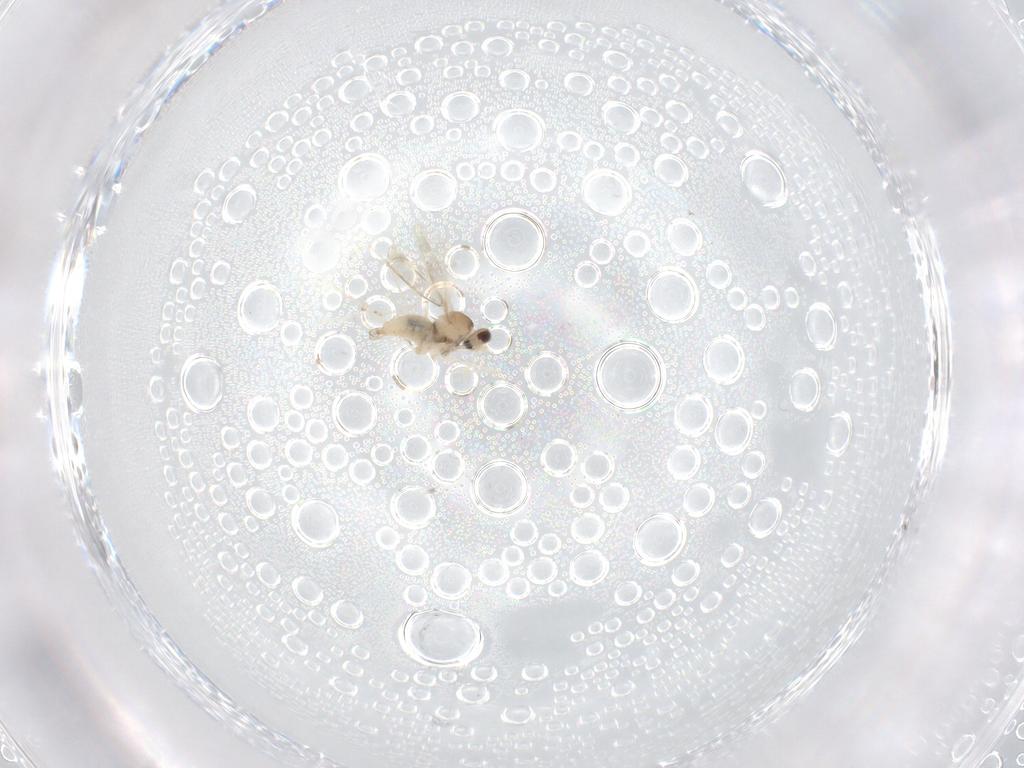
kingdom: Animalia
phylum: Arthropoda
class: Insecta
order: Diptera
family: Cecidomyiidae
